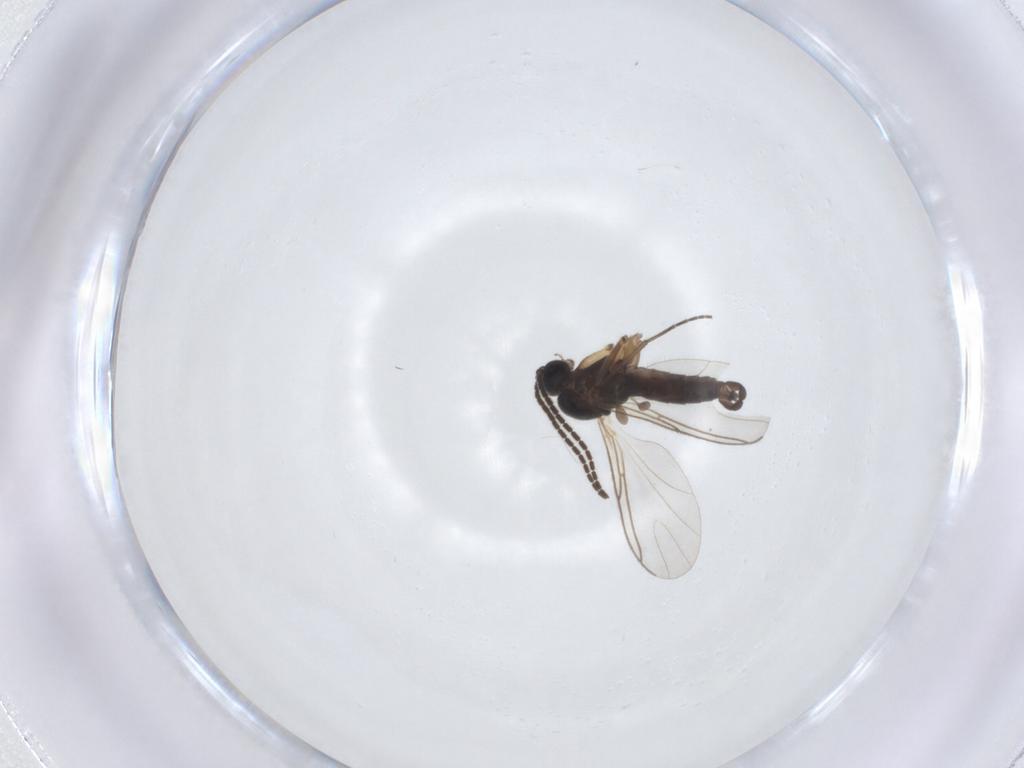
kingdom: Animalia
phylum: Arthropoda
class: Insecta
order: Diptera
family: Sciaridae
